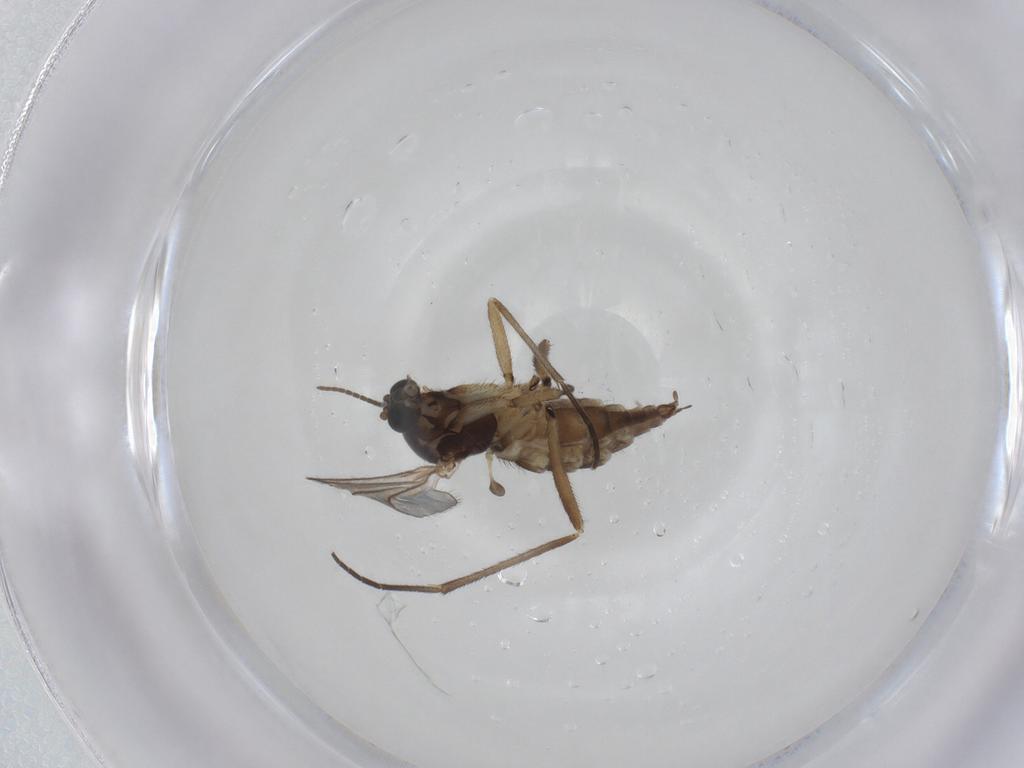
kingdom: Animalia
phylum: Arthropoda
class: Insecta
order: Diptera
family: Sciaridae
